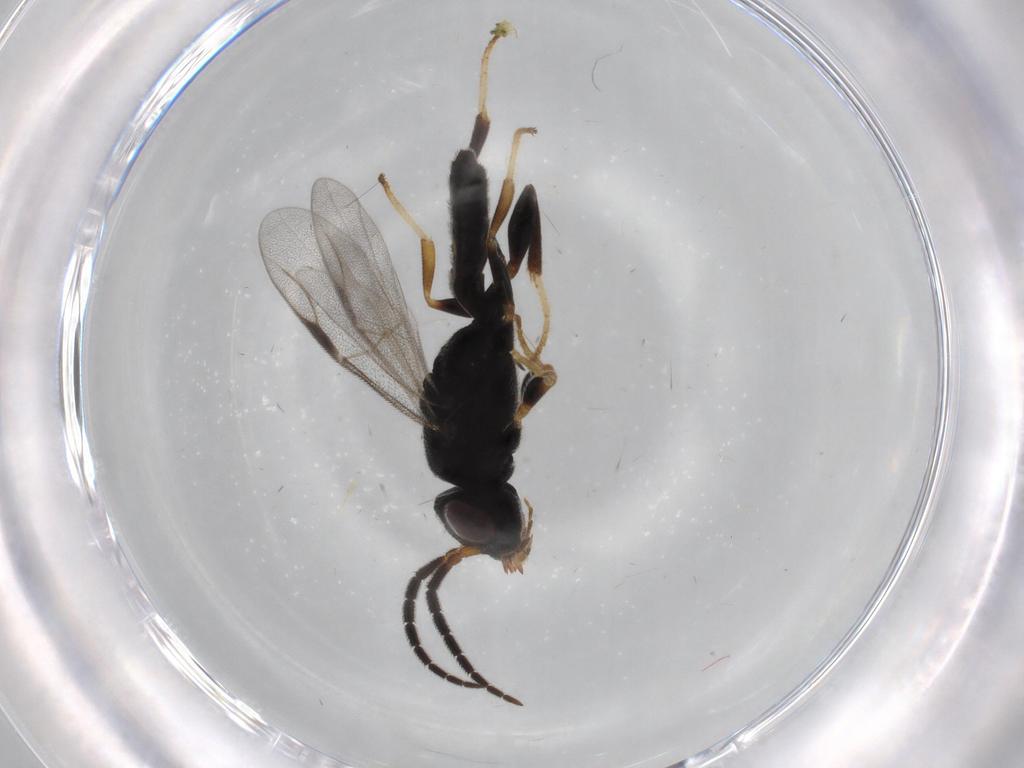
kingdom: Animalia
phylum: Arthropoda
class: Insecta
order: Hymenoptera
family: Dryinidae
